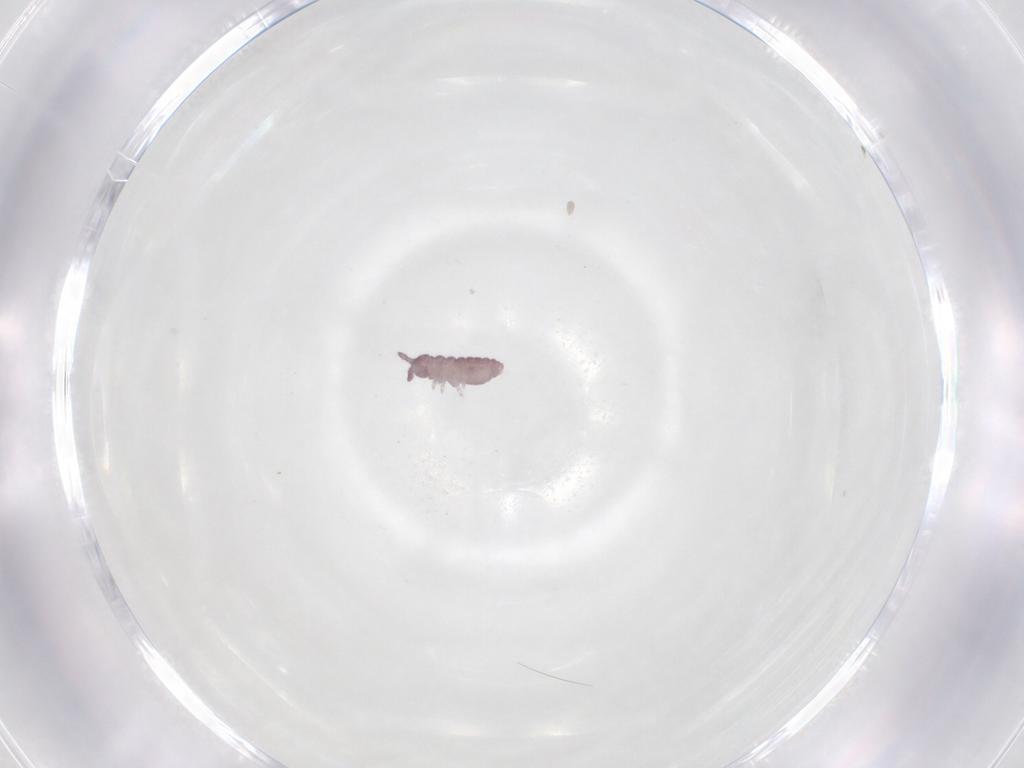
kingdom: Animalia
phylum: Arthropoda
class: Collembola
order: Poduromorpha
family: Hypogastruridae
